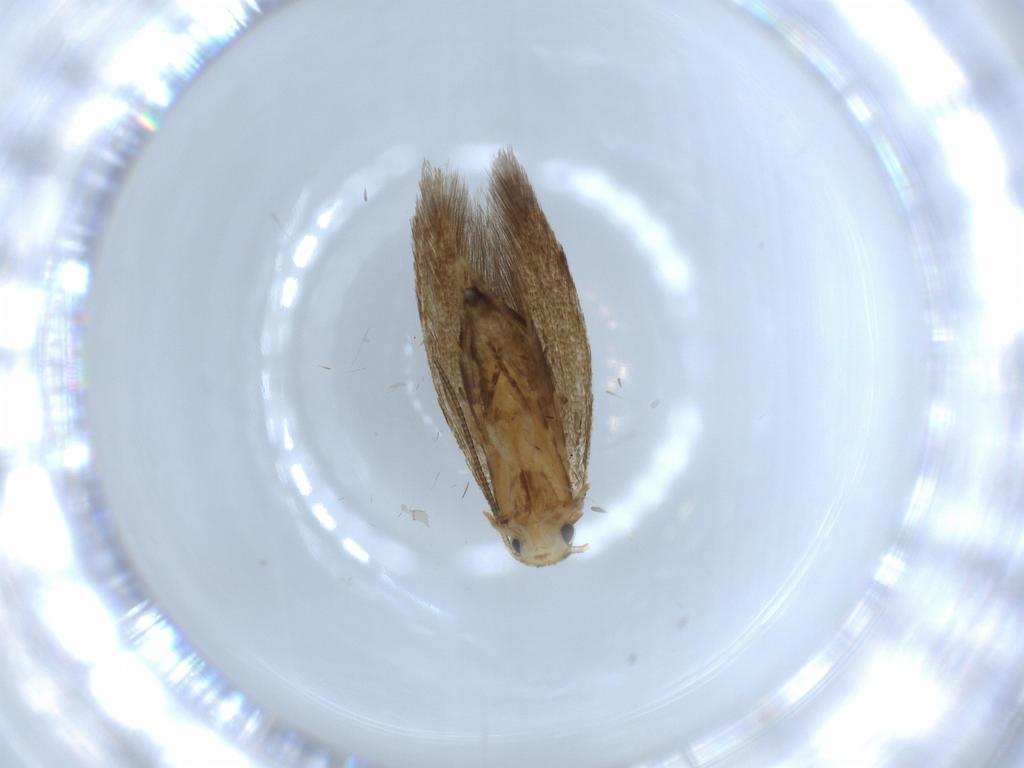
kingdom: Animalia
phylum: Arthropoda
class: Insecta
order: Lepidoptera
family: Tineidae
